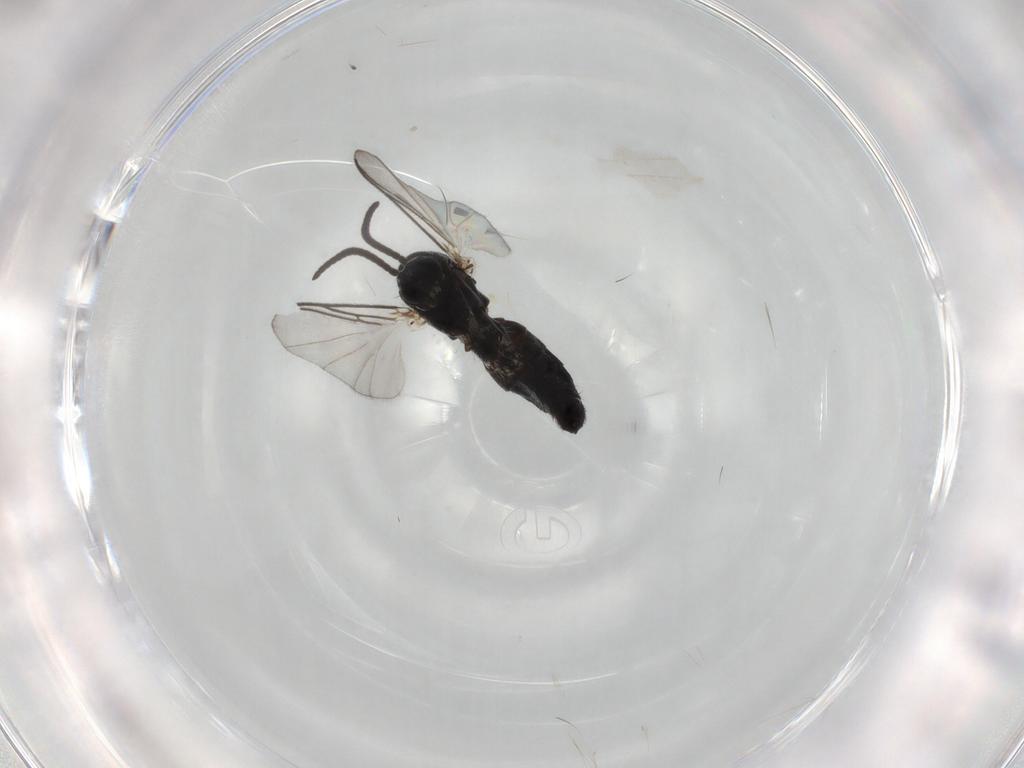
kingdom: Animalia
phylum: Arthropoda
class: Insecta
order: Diptera
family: Mycetophilidae
